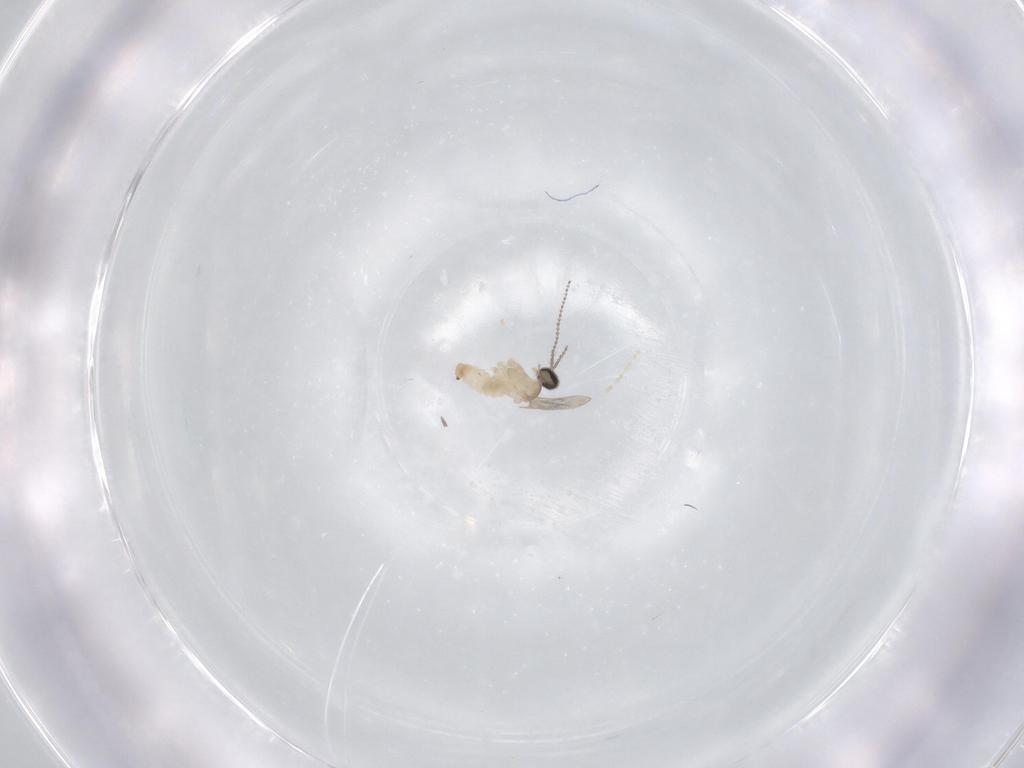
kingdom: Animalia
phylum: Arthropoda
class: Insecta
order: Diptera
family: Cecidomyiidae
